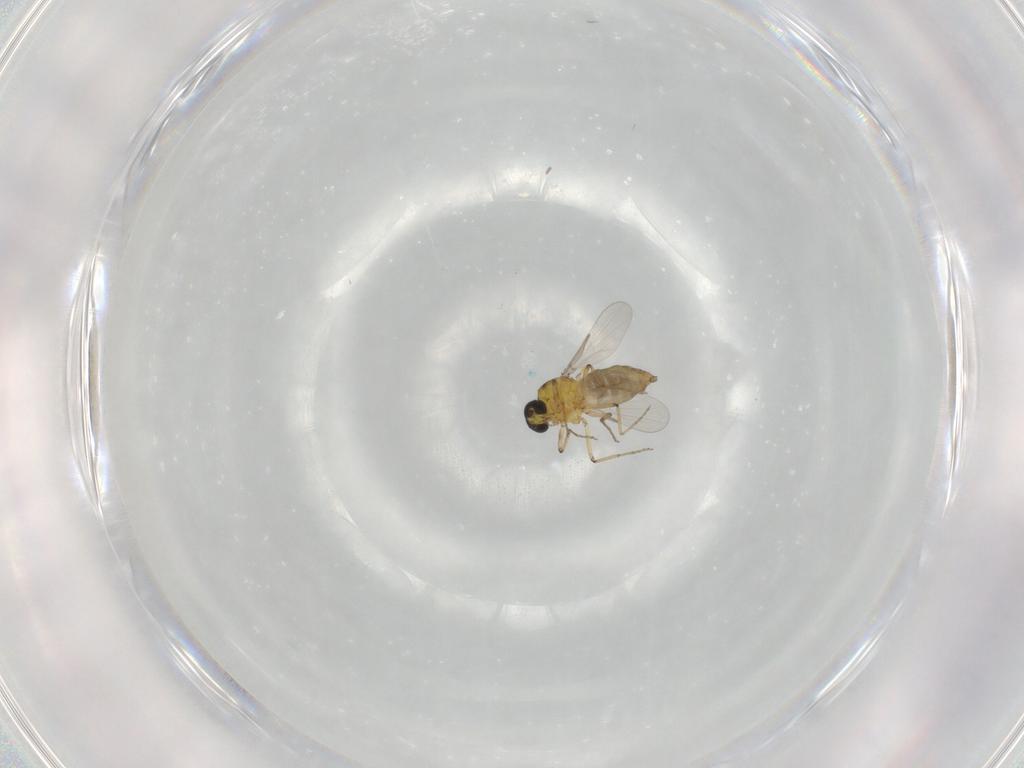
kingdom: Animalia
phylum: Arthropoda
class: Insecta
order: Diptera
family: Ceratopogonidae
